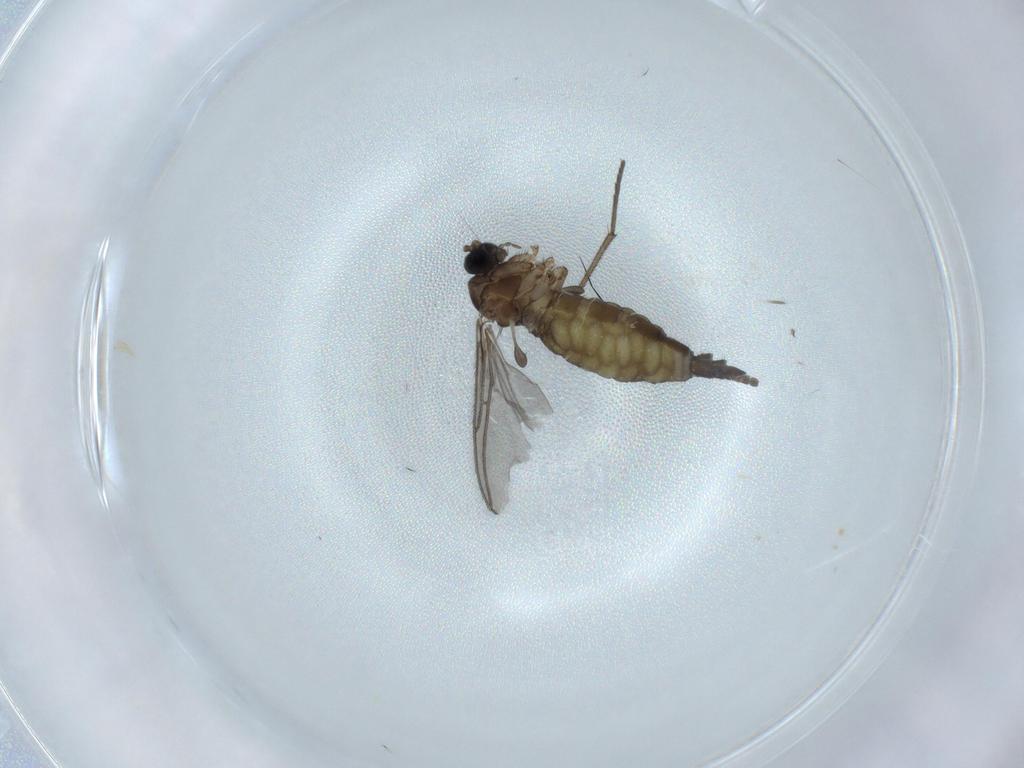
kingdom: Animalia
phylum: Arthropoda
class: Insecta
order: Diptera
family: Sciaridae
